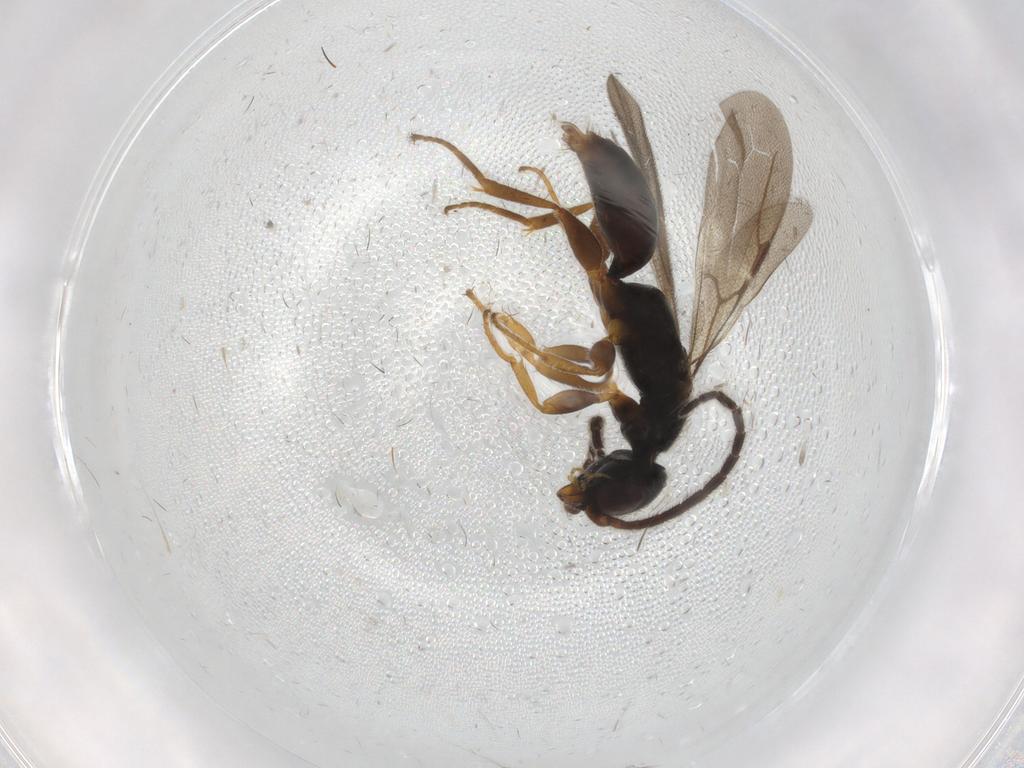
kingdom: Animalia
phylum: Arthropoda
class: Insecta
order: Hymenoptera
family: Bethylidae
